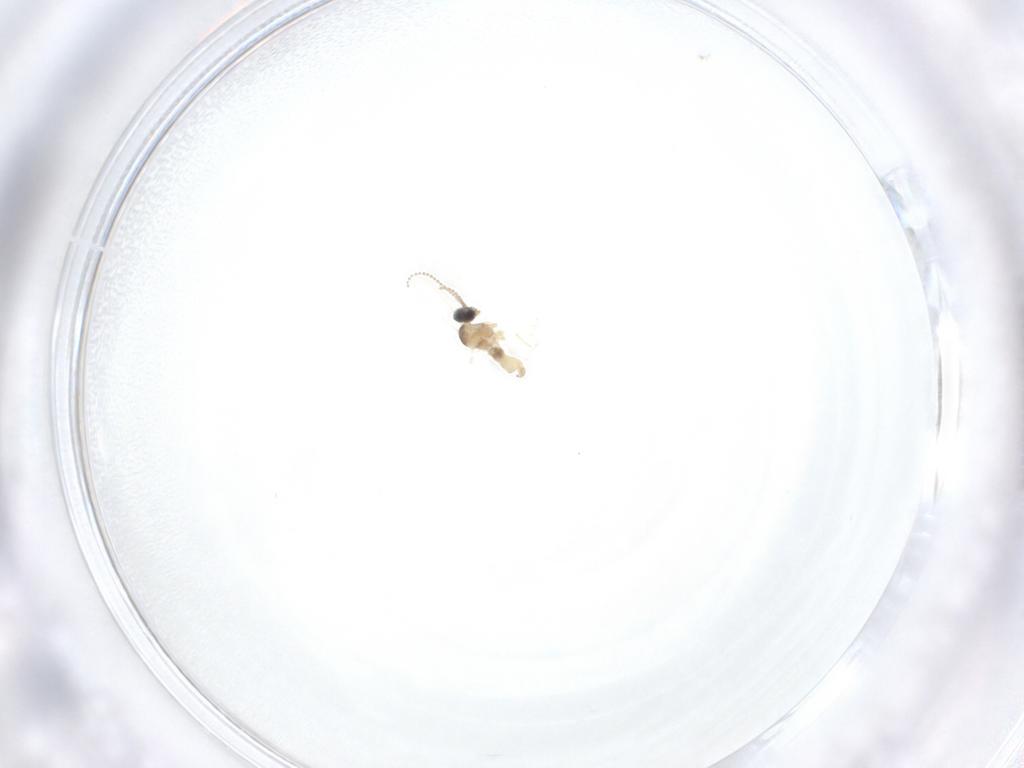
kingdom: Animalia
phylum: Arthropoda
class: Insecta
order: Diptera
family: Cecidomyiidae
